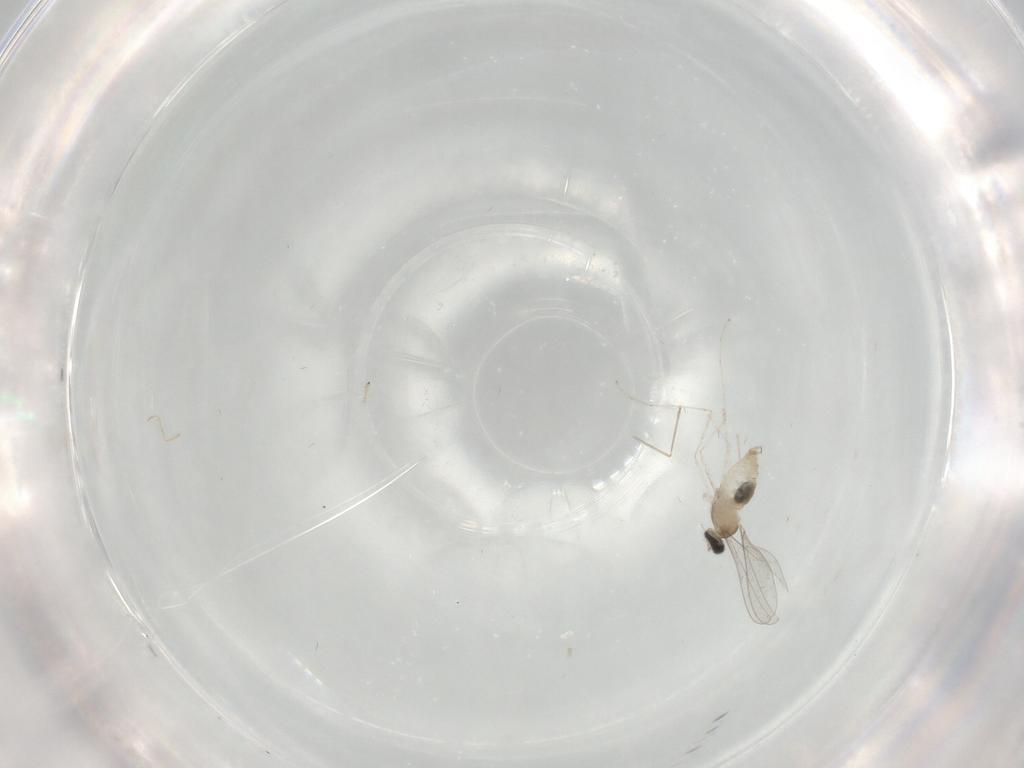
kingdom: Animalia
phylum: Arthropoda
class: Insecta
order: Diptera
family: Cecidomyiidae
